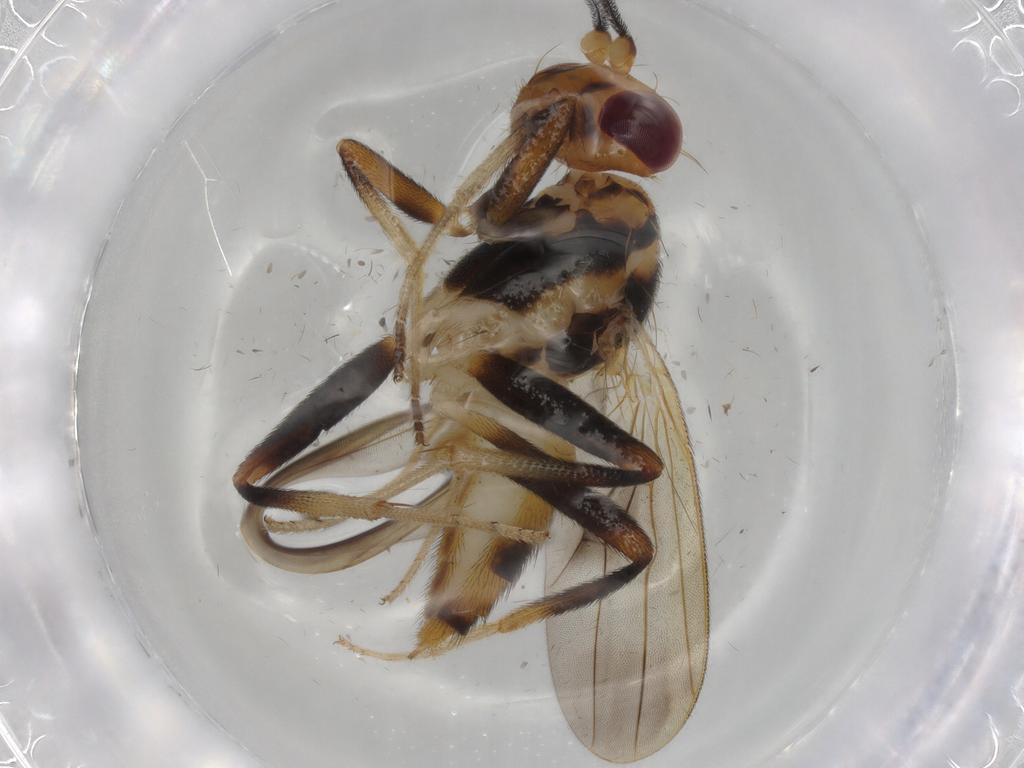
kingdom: Animalia
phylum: Arthropoda
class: Insecta
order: Diptera
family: Clusiidae
